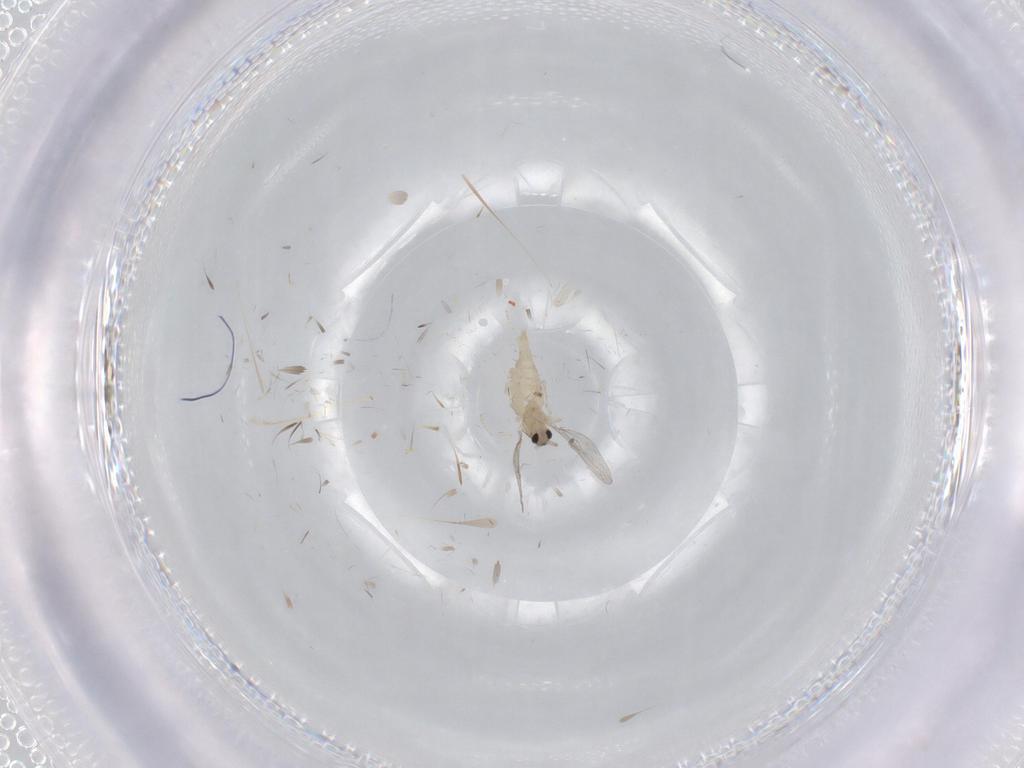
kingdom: Animalia
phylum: Arthropoda
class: Insecta
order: Diptera
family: Cecidomyiidae
